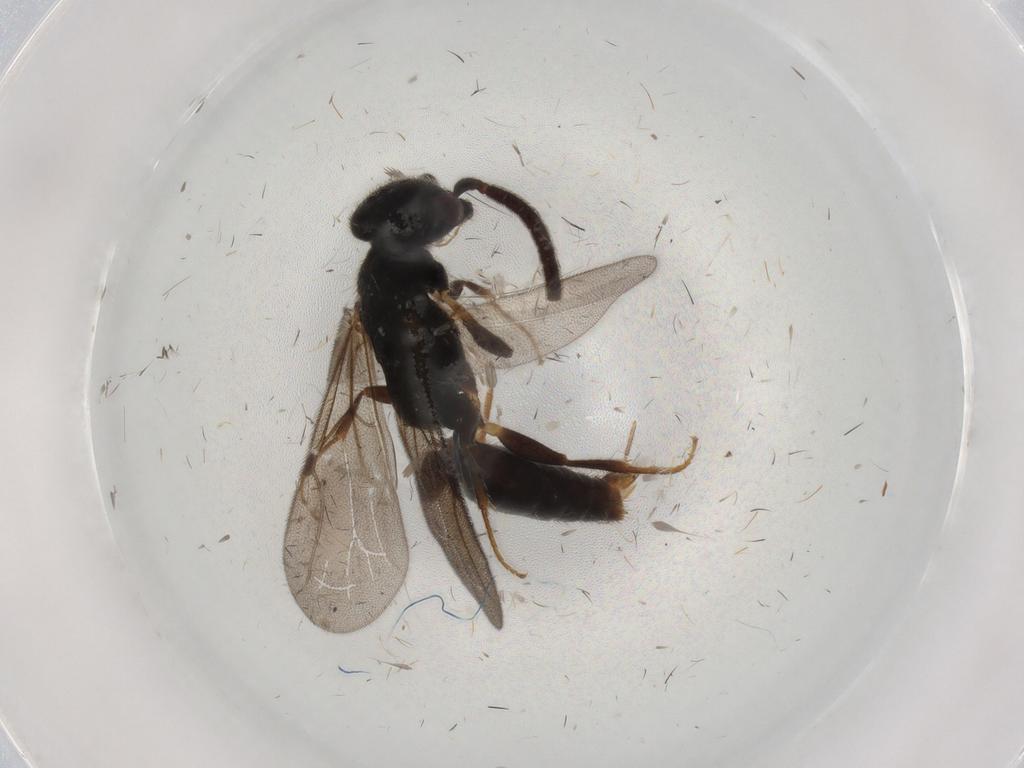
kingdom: Animalia
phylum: Arthropoda
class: Insecta
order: Hymenoptera
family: Bethylidae
